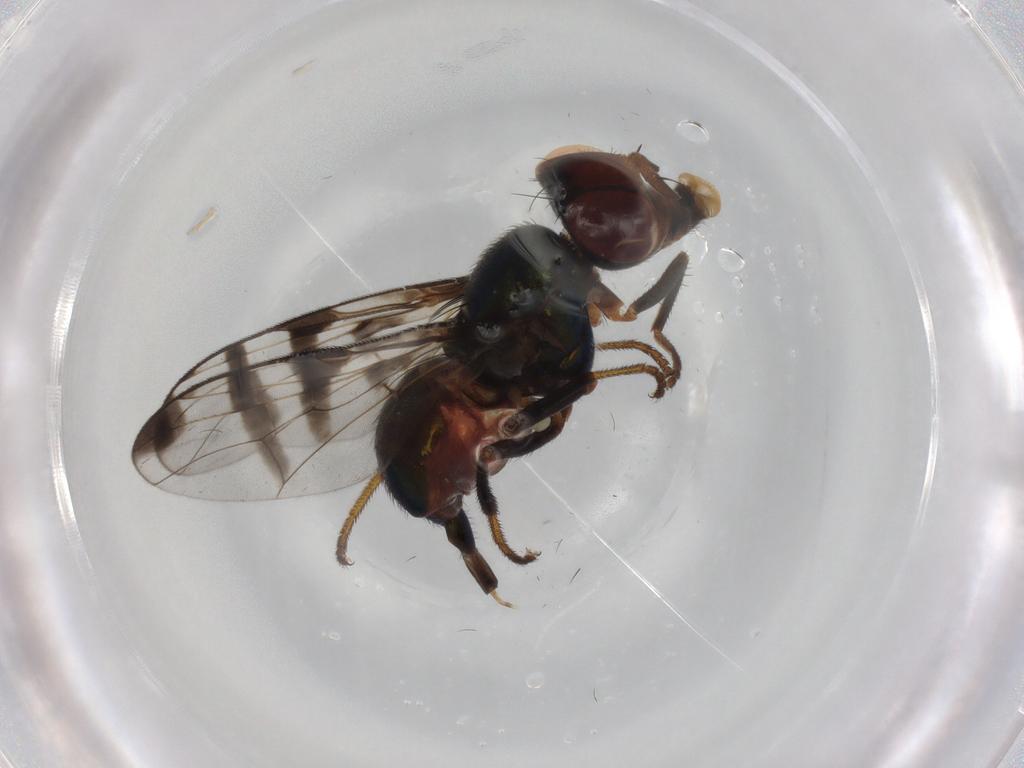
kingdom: Animalia
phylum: Arthropoda
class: Insecta
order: Diptera
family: Platystomatidae
